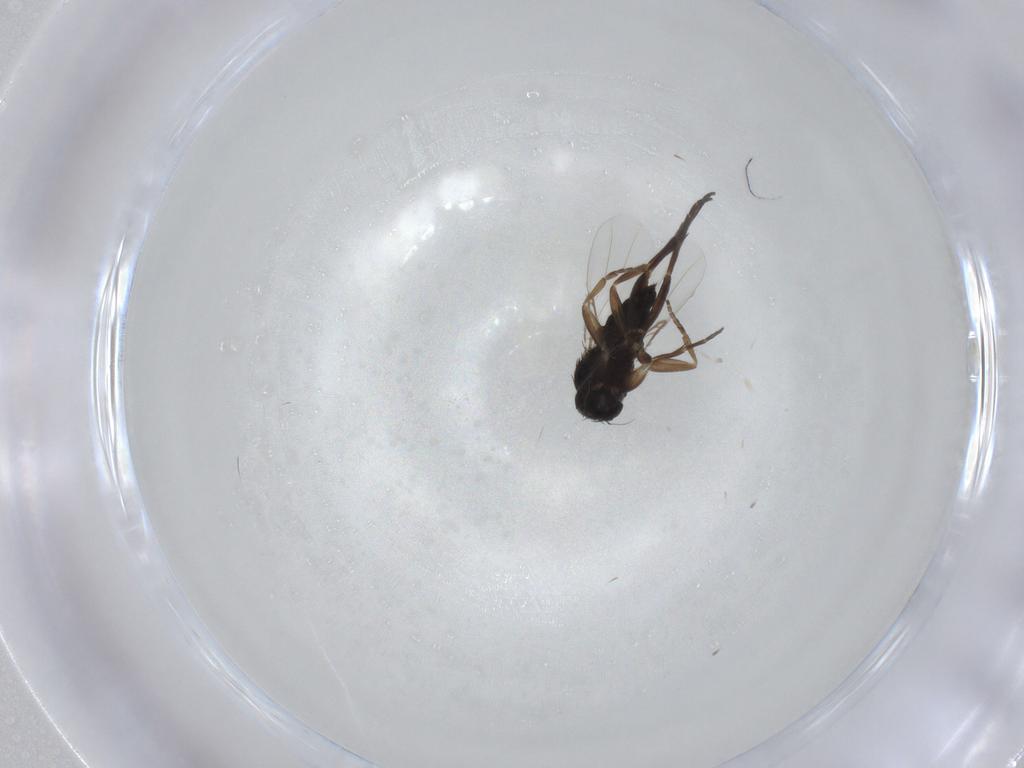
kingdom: Animalia
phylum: Arthropoda
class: Insecta
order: Diptera
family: Phoridae
